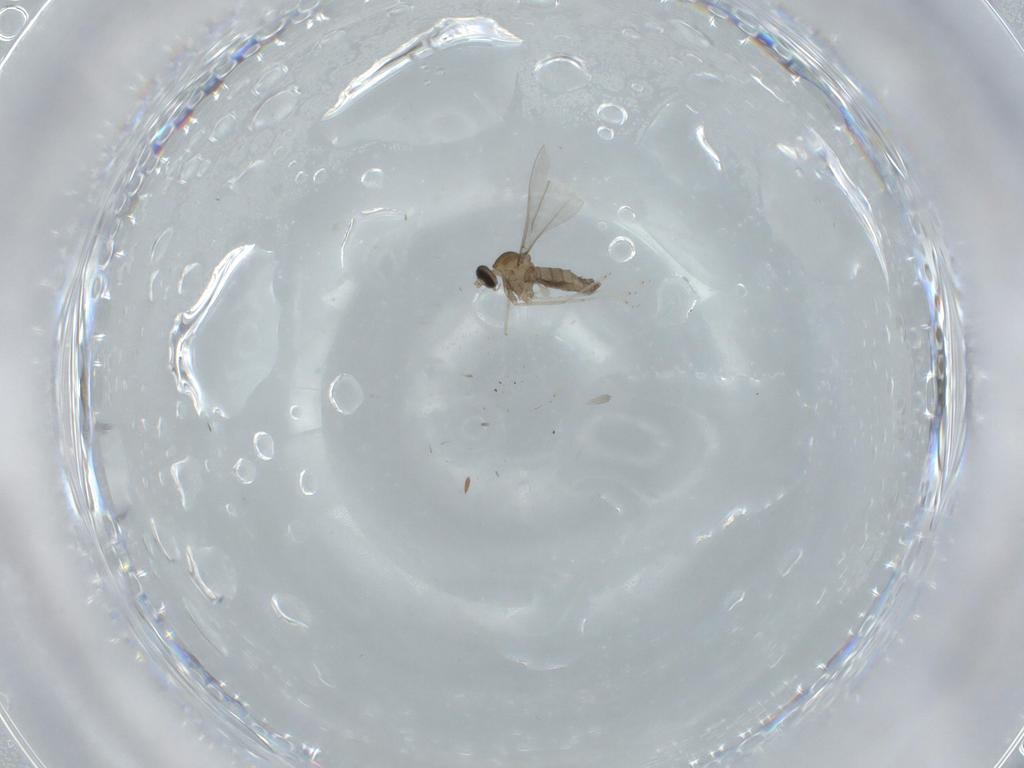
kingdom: Animalia
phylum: Arthropoda
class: Insecta
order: Diptera
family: Cecidomyiidae
